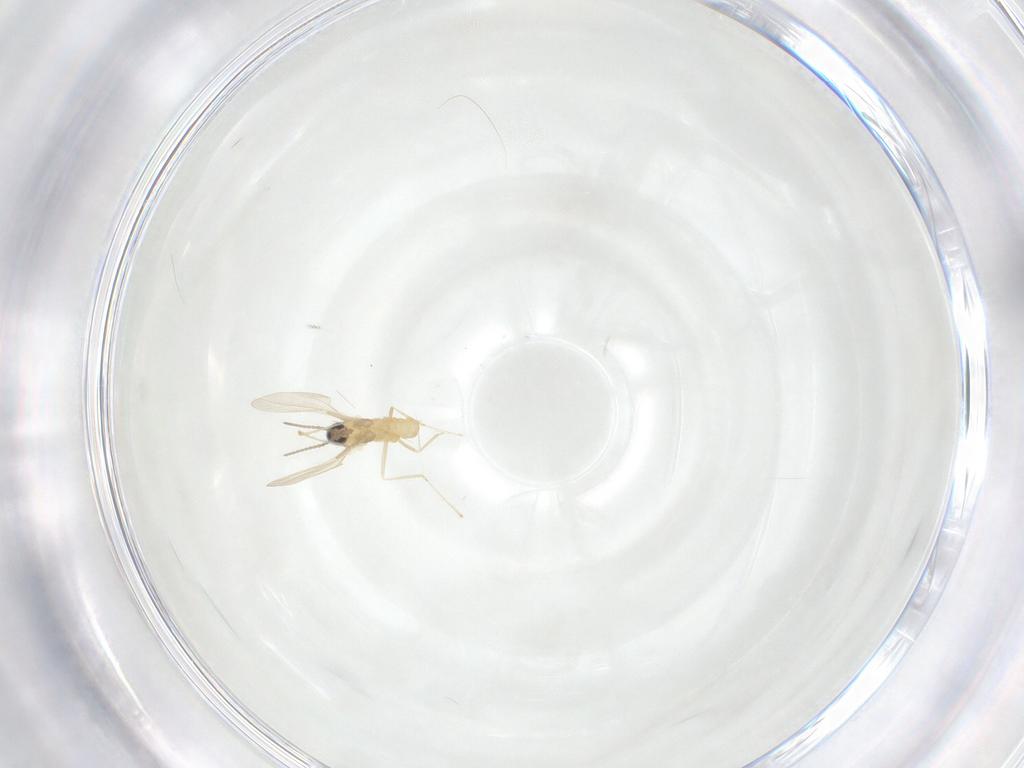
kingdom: Animalia
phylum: Arthropoda
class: Insecta
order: Diptera
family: Cecidomyiidae
